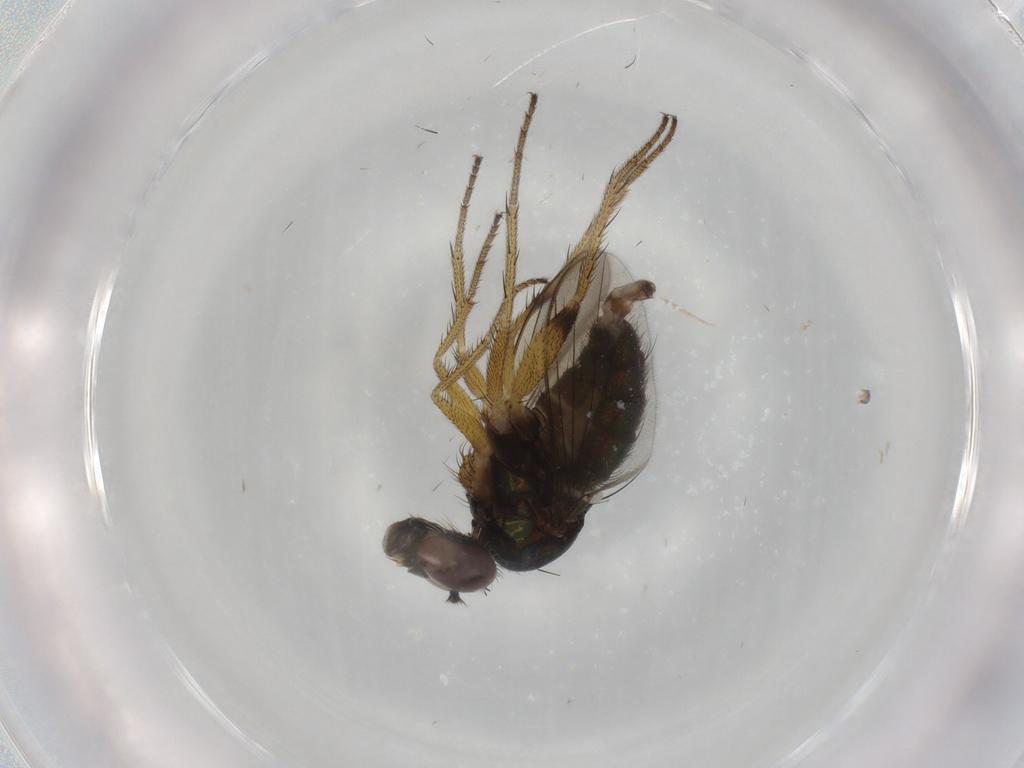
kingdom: Animalia
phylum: Arthropoda
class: Insecta
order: Diptera
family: Dolichopodidae
